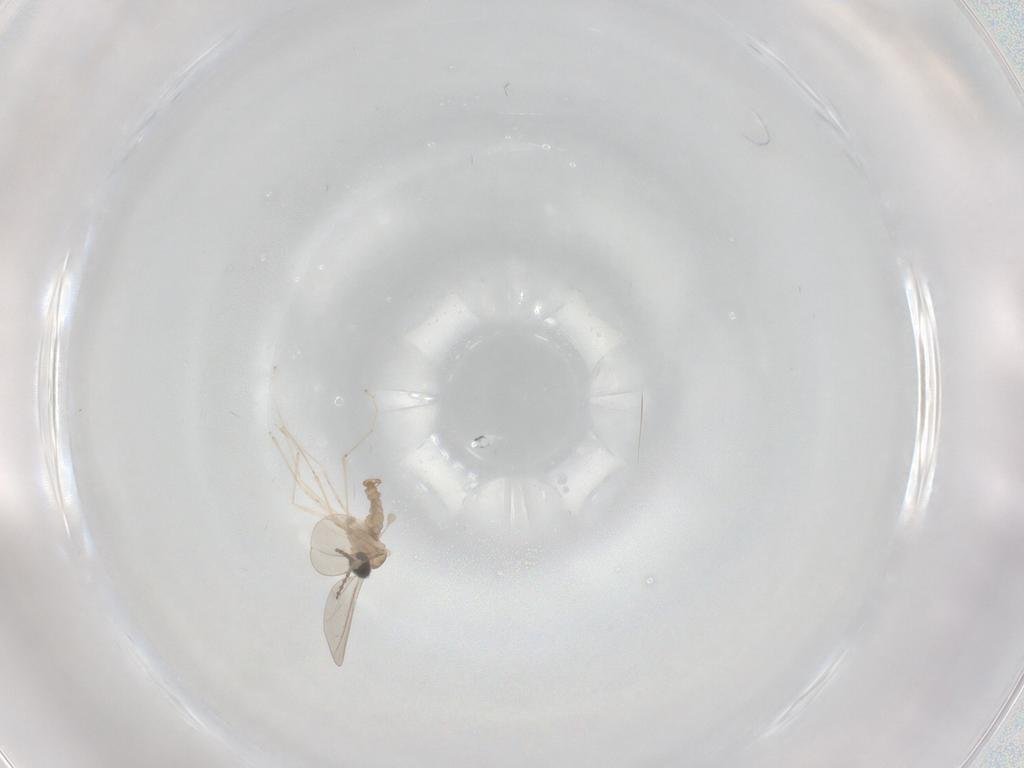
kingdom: Animalia
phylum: Arthropoda
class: Insecta
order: Diptera
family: Cecidomyiidae
